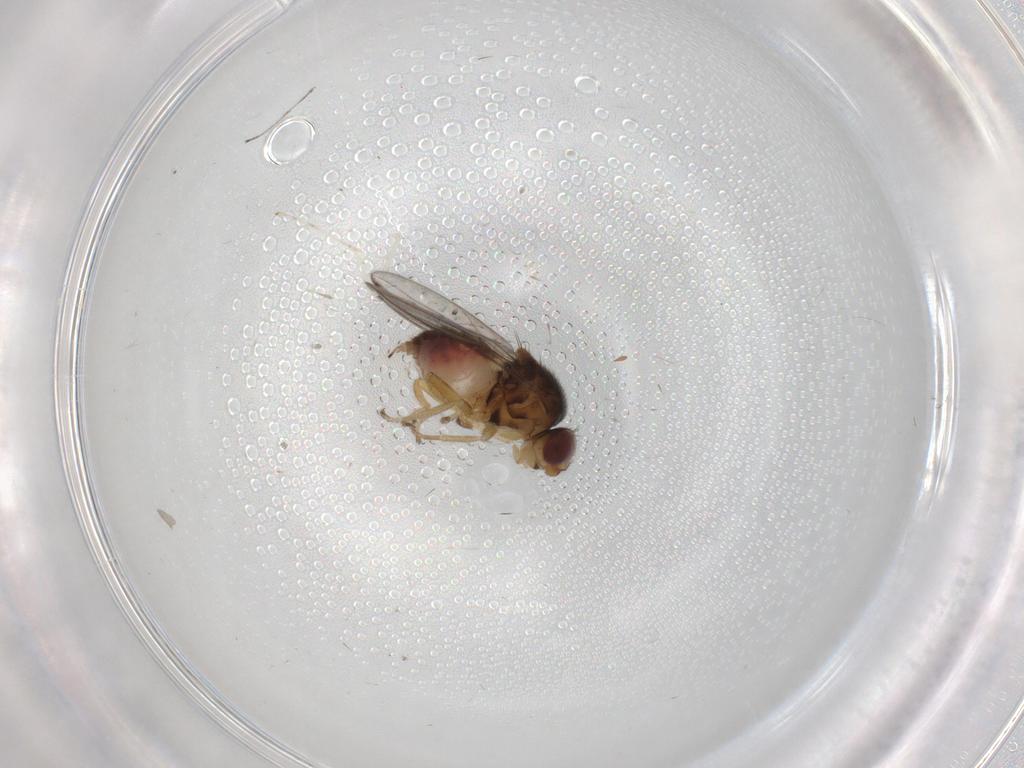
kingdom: Animalia
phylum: Arthropoda
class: Insecta
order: Diptera
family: Chloropidae
